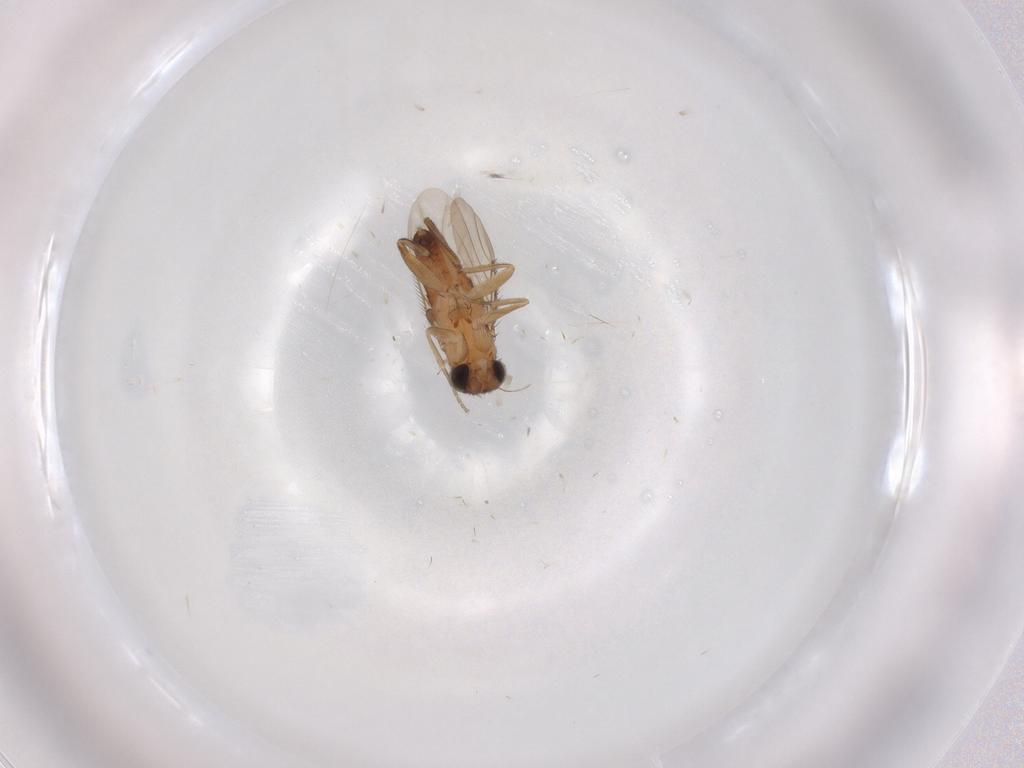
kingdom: Animalia
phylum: Arthropoda
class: Insecta
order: Diptera
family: Phoridae
